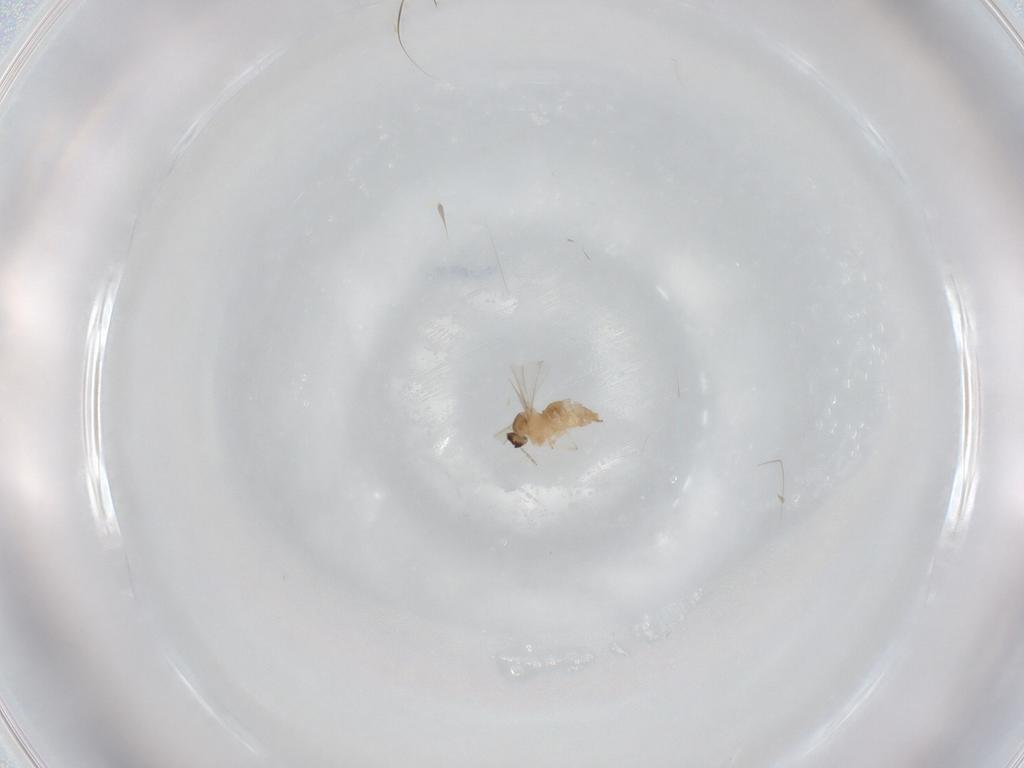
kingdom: Animalia
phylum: Arthropoda
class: Insecta
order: Diptera
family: Cecidomyiidae
